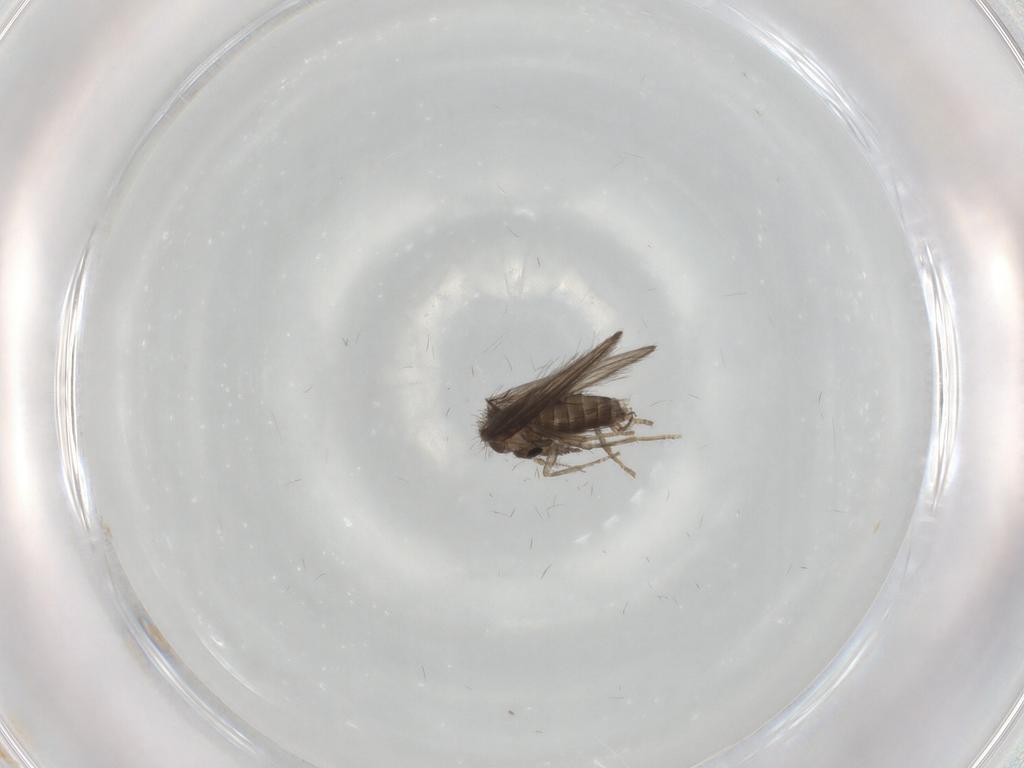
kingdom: Animalia
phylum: Arthropoda
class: Insecta
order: Diptera
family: Psychodidae
